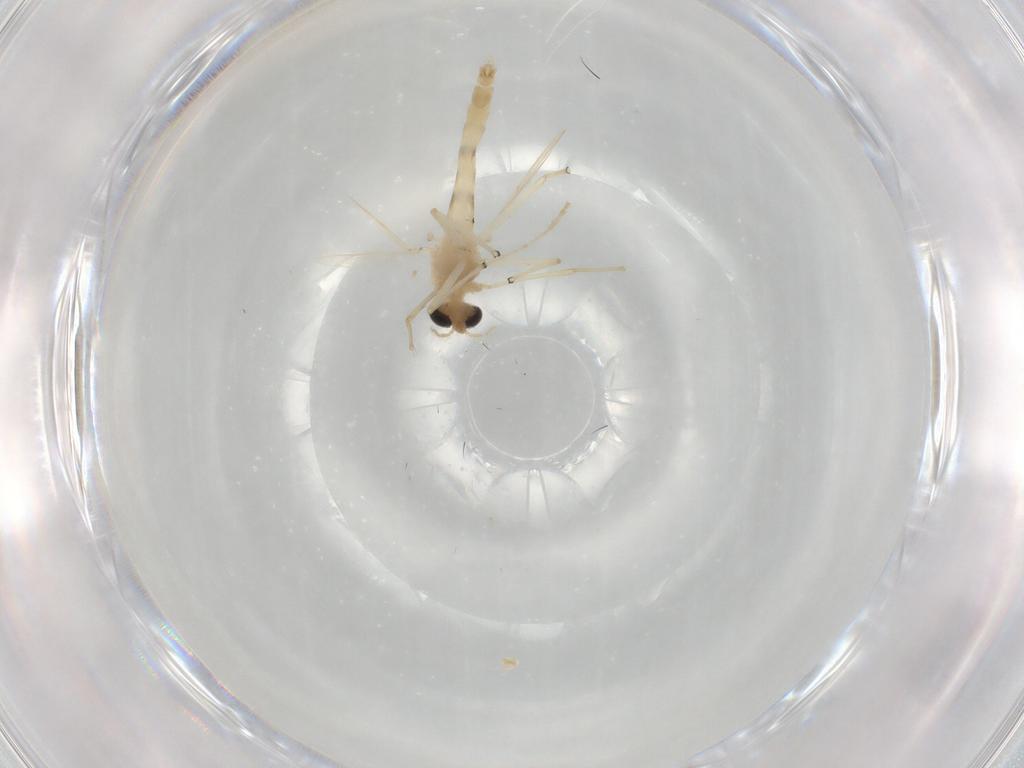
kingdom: Animalia
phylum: Arthropoda
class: Insecta
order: Diptera
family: Chironomidae
